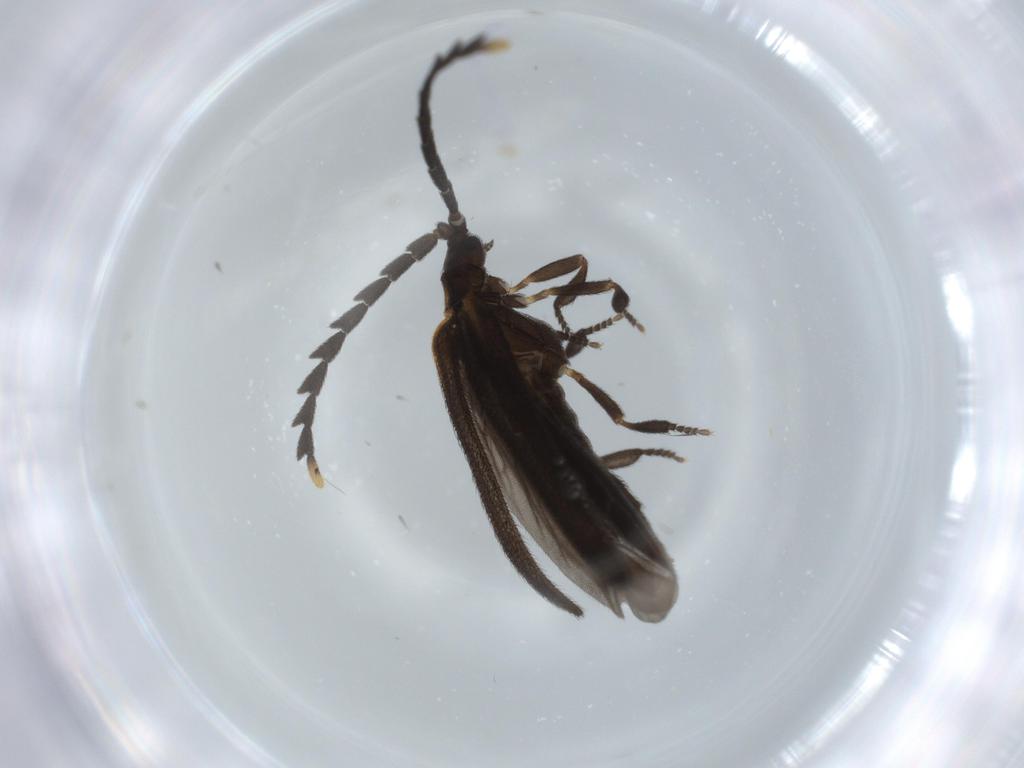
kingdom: Animalia
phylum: Arthropoda
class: Insecta
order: Coleoptera
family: Lycidae
